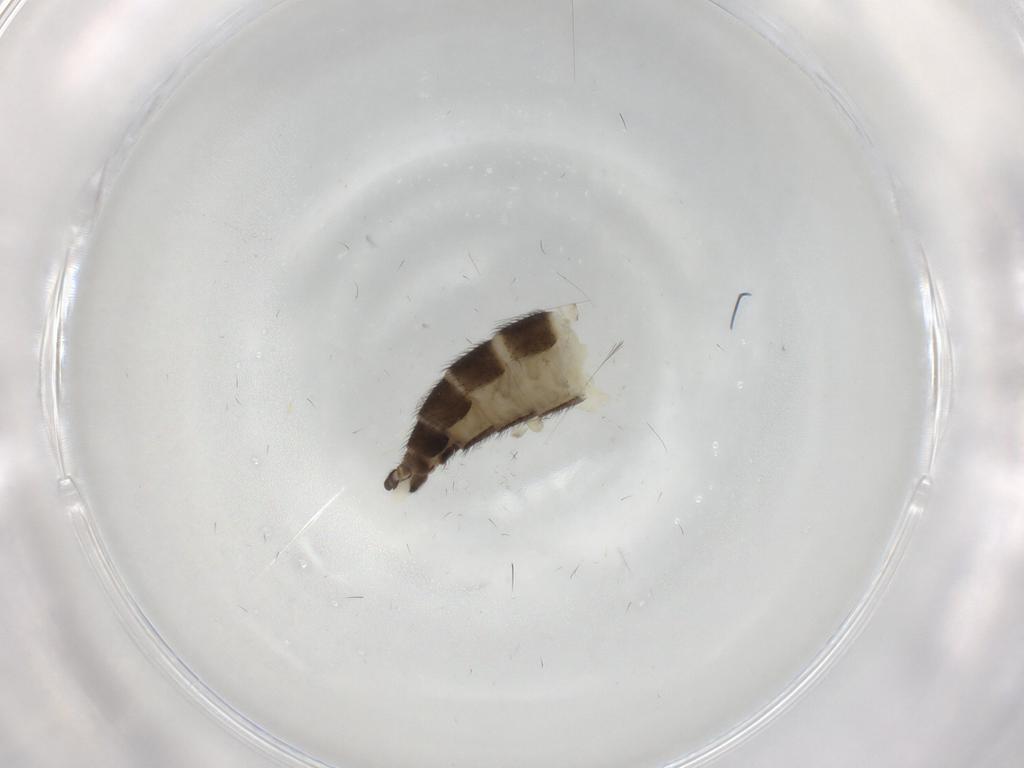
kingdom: Animalia
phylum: Arthropoda
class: Insecta
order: Diptera
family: Sciaridae
